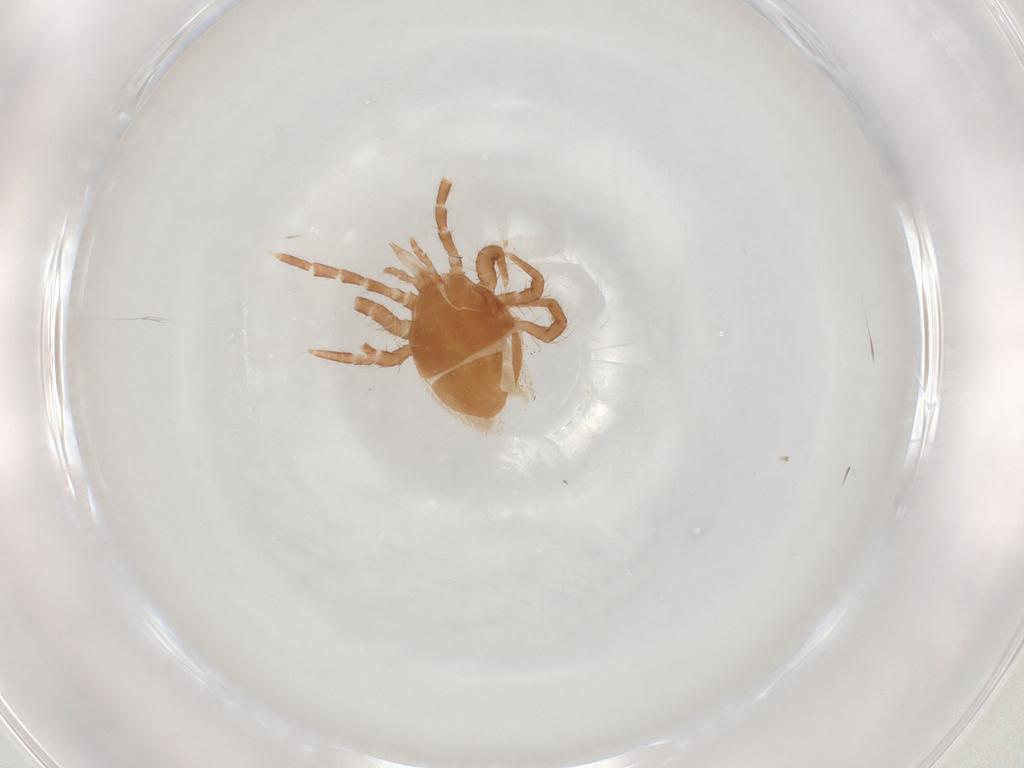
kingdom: Animalia
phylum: Arthropoda
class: Arachnida
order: Mesostigmata
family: Parasitidae
